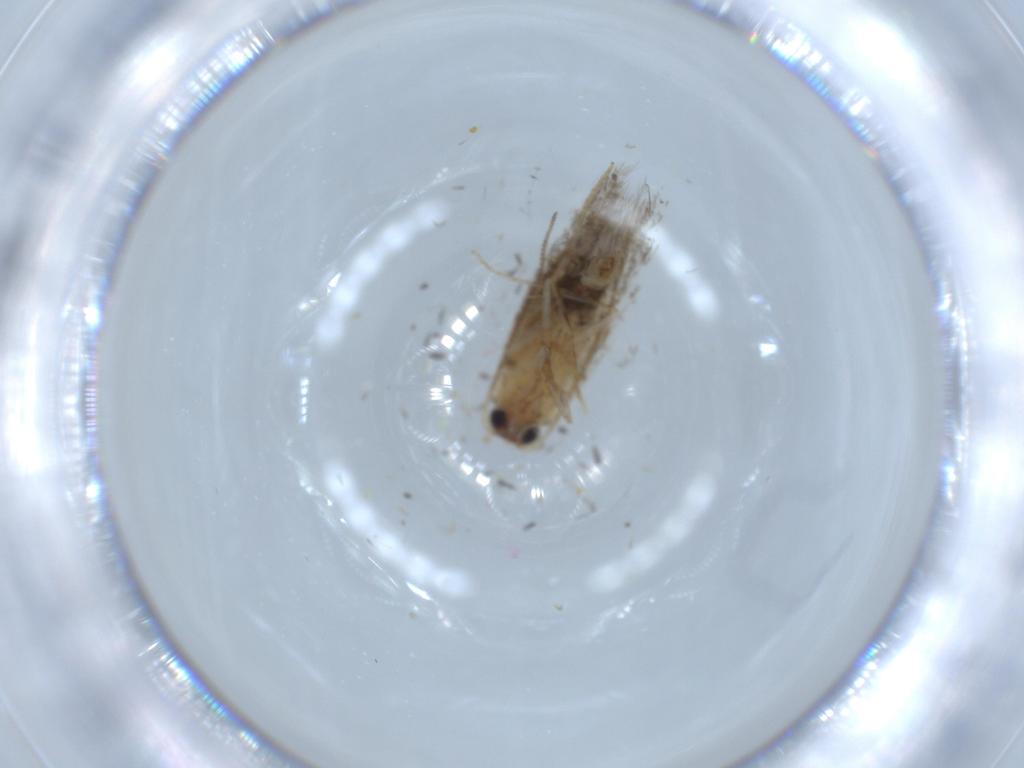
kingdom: Animalia
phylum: Arthropoda
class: Insecta
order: Lepidoptera
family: Tineidae
